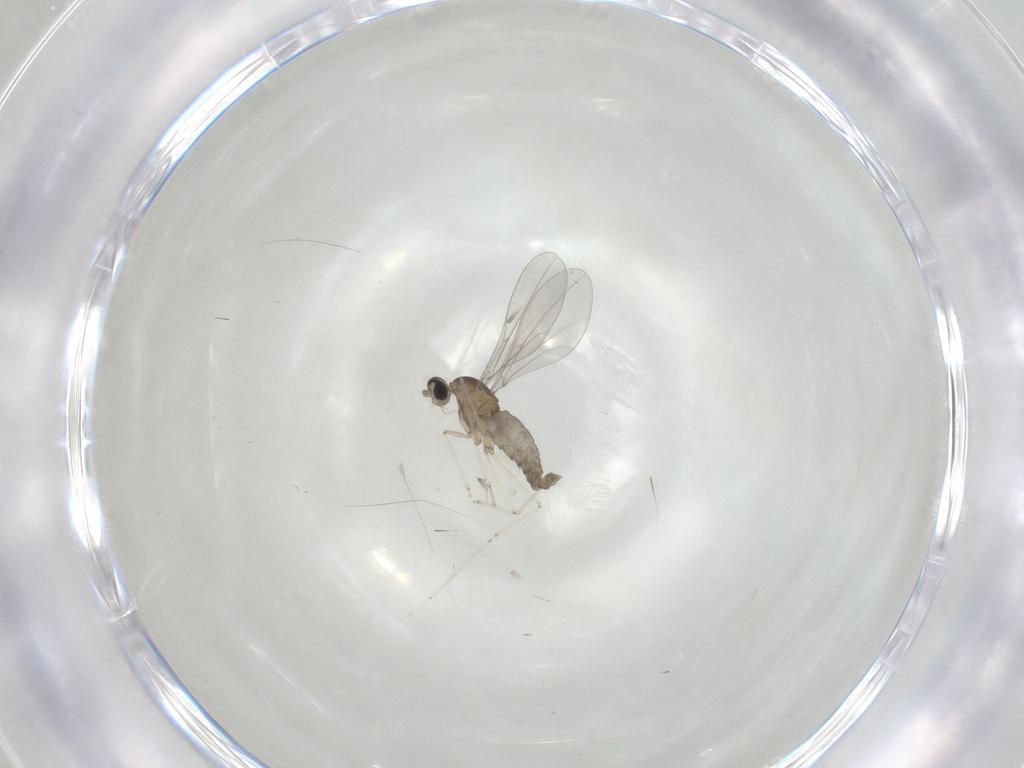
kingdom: Animalia
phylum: Arthropoda
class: Insecta
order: Diptera
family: Cecidomyiidae
